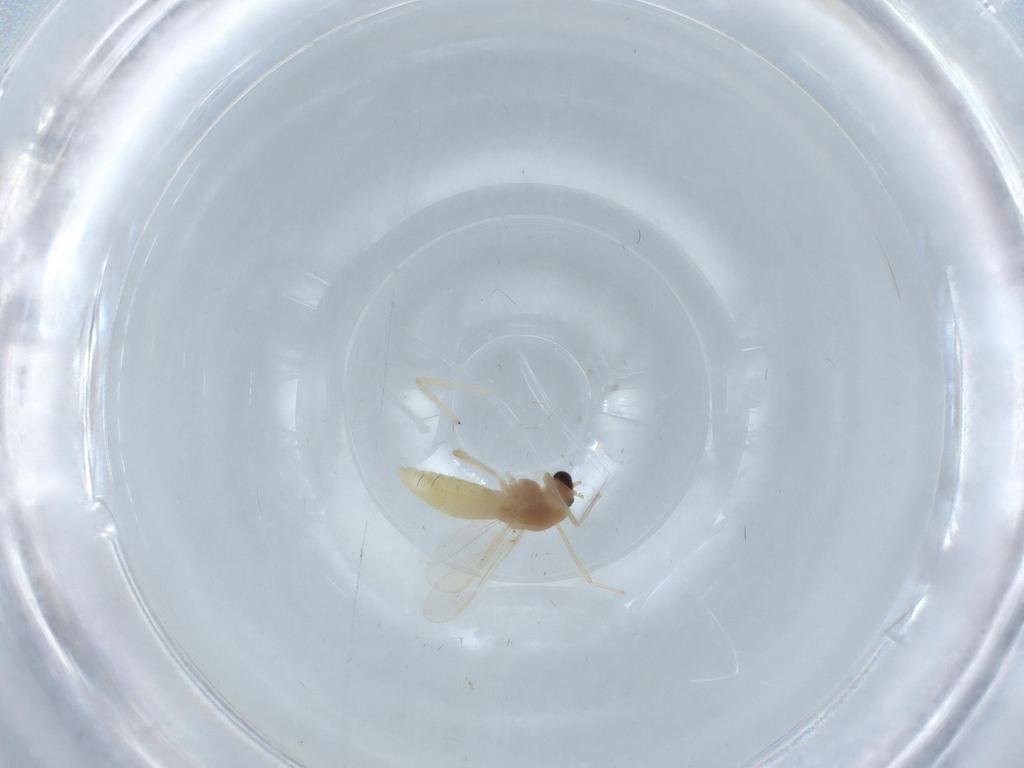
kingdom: Animalia
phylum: Arthropoda
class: Insecta
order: Diptera
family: Chironomidae
